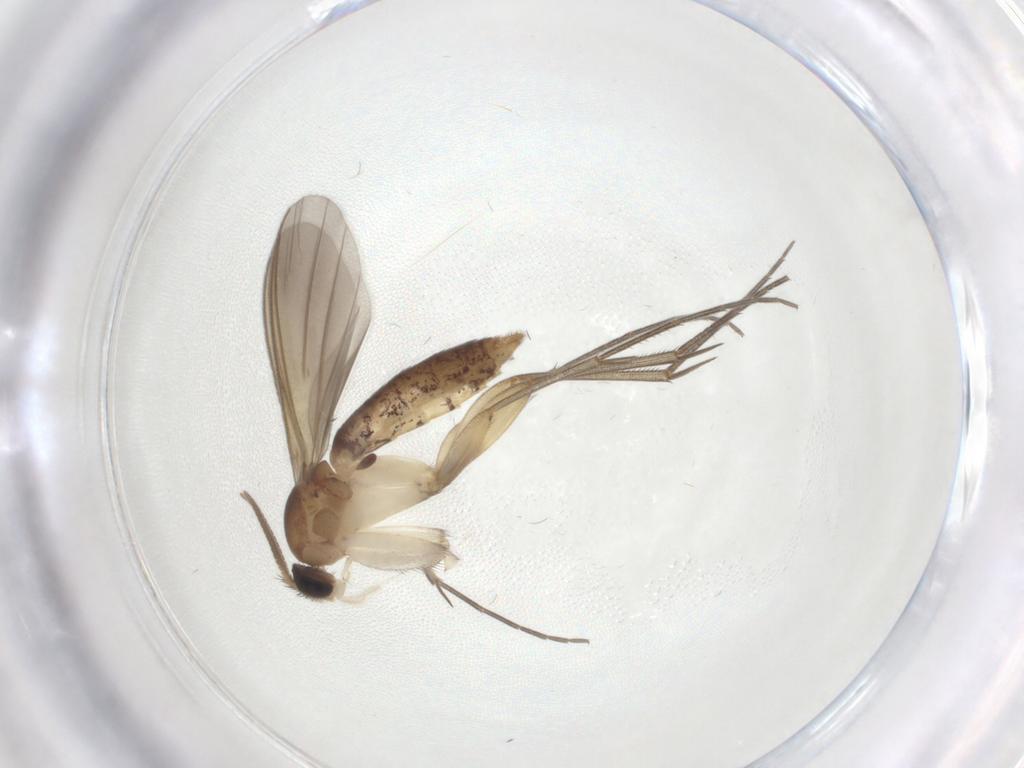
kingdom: Animalia
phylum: Arthropoda
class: Insecta
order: Diptera
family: Mycetophilidae
